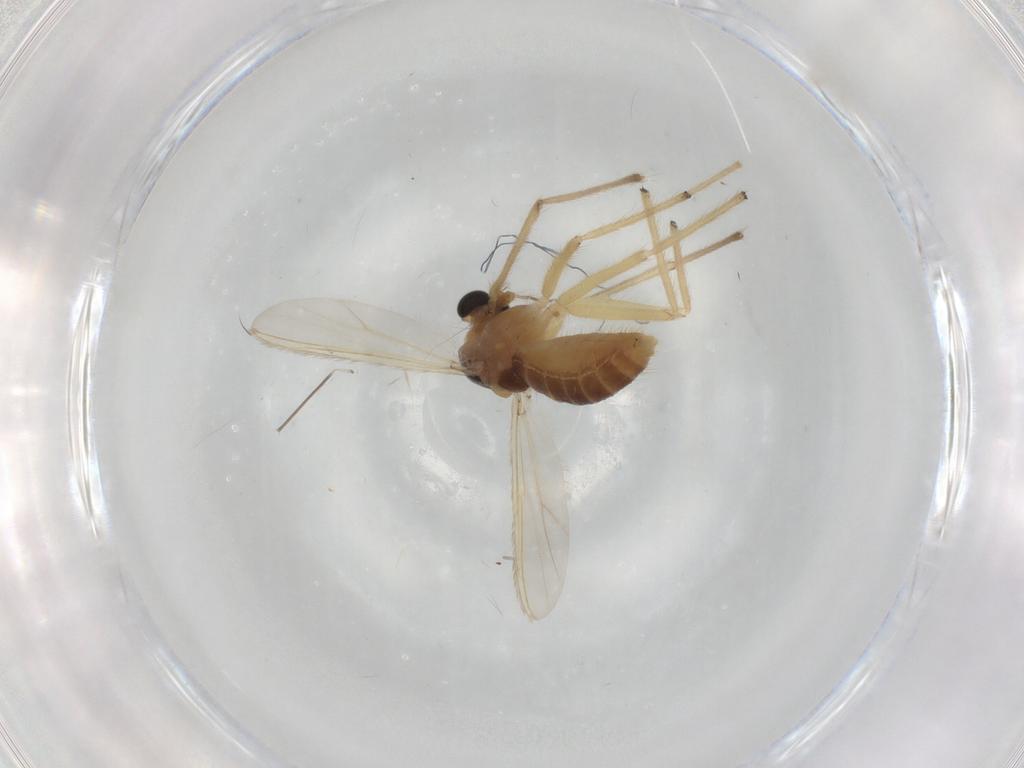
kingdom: Animalia
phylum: Arthropoda
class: Insecta
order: Diptera
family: Chironomidae
